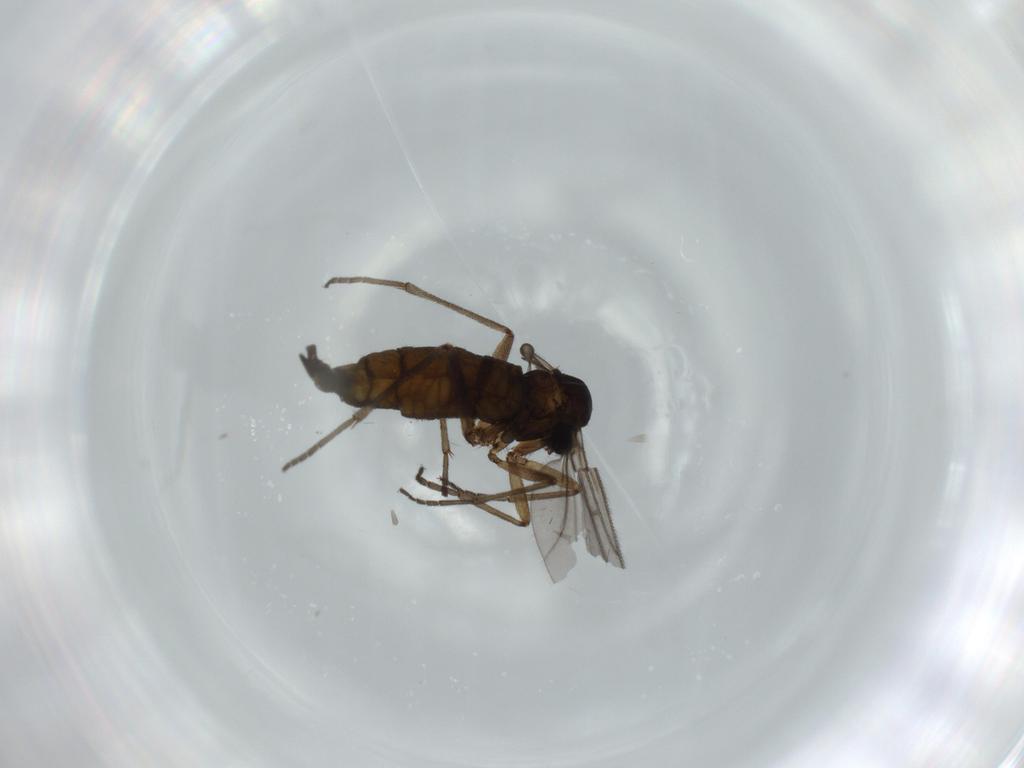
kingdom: Animalia
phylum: Arthropoda
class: Insecta
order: Diptera
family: Sciaridae
